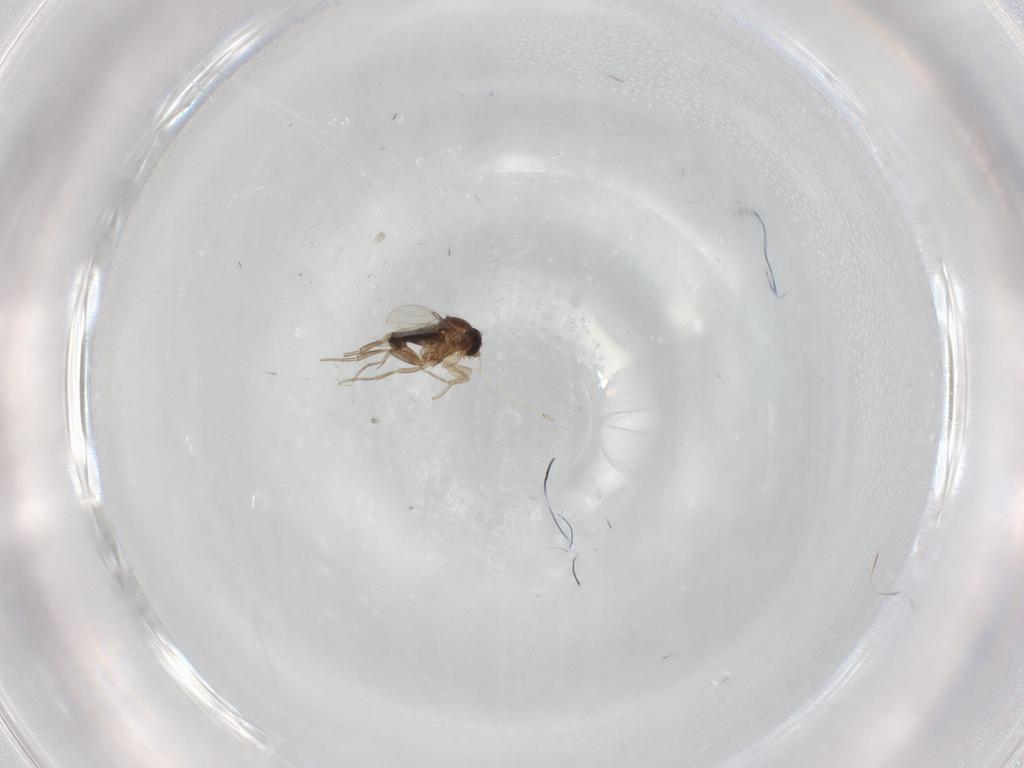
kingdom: Animalia
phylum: Arthropoda
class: Insecta
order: Diptera
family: Cecidomyiidae
